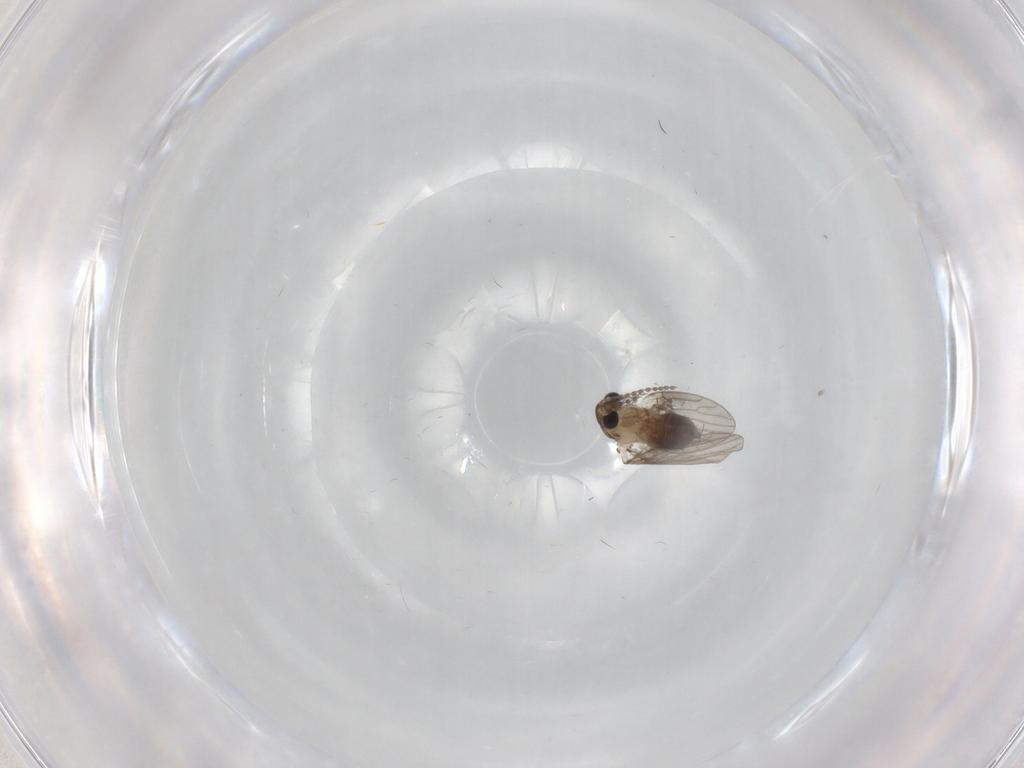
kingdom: Animalia
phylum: Arthropoda
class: Insecta
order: Diptera
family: Psychodidae
